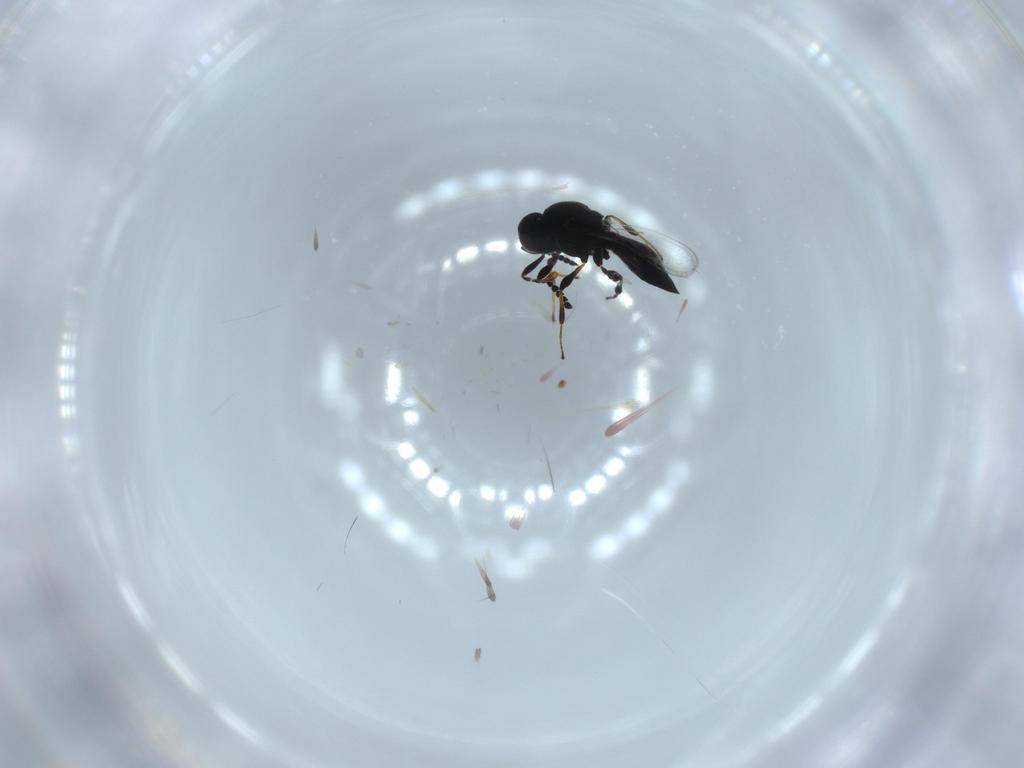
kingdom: Animalia
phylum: Arthropoda
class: Insecta
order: Hymenoptera
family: Platygastridae
